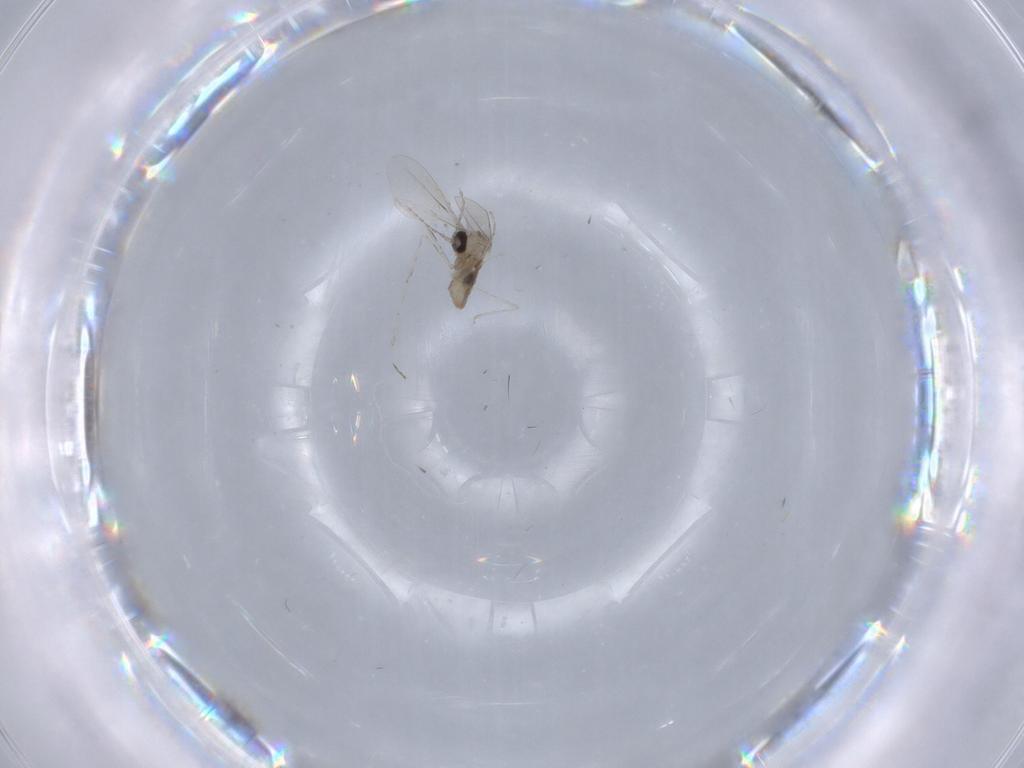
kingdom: Animalia
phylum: Arthropoda
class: Insecta
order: Diptera
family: Chironomidae
